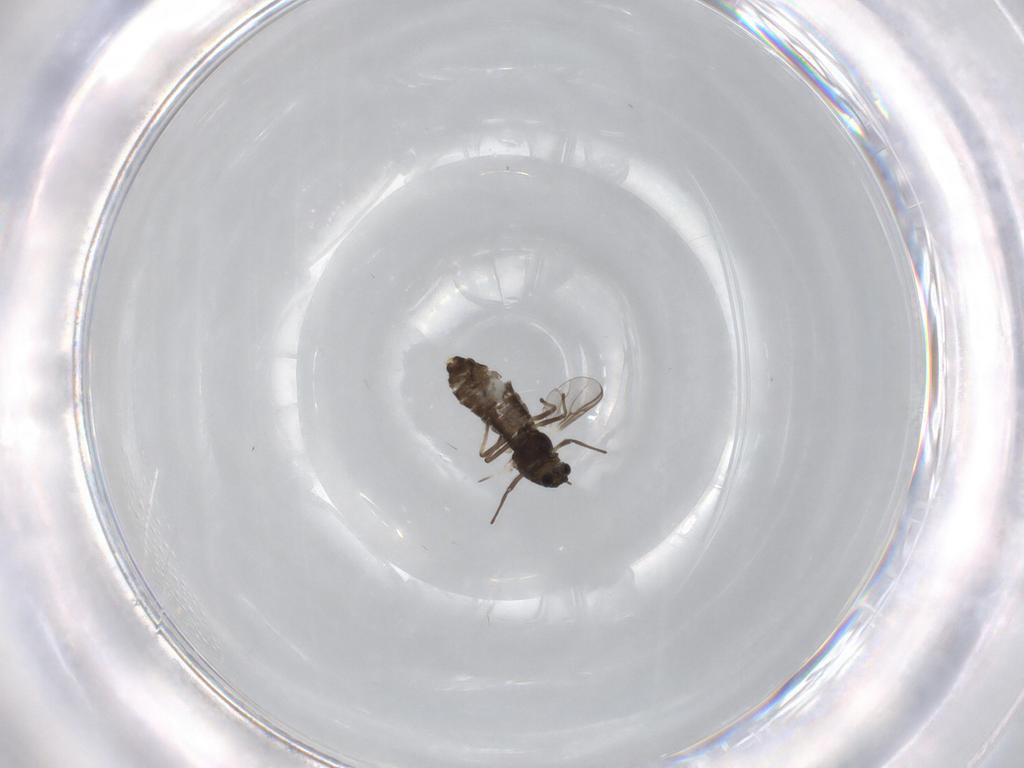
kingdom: Animalia
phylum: Arthropoda
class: Insecta
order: Diptera
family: Chironomidae
